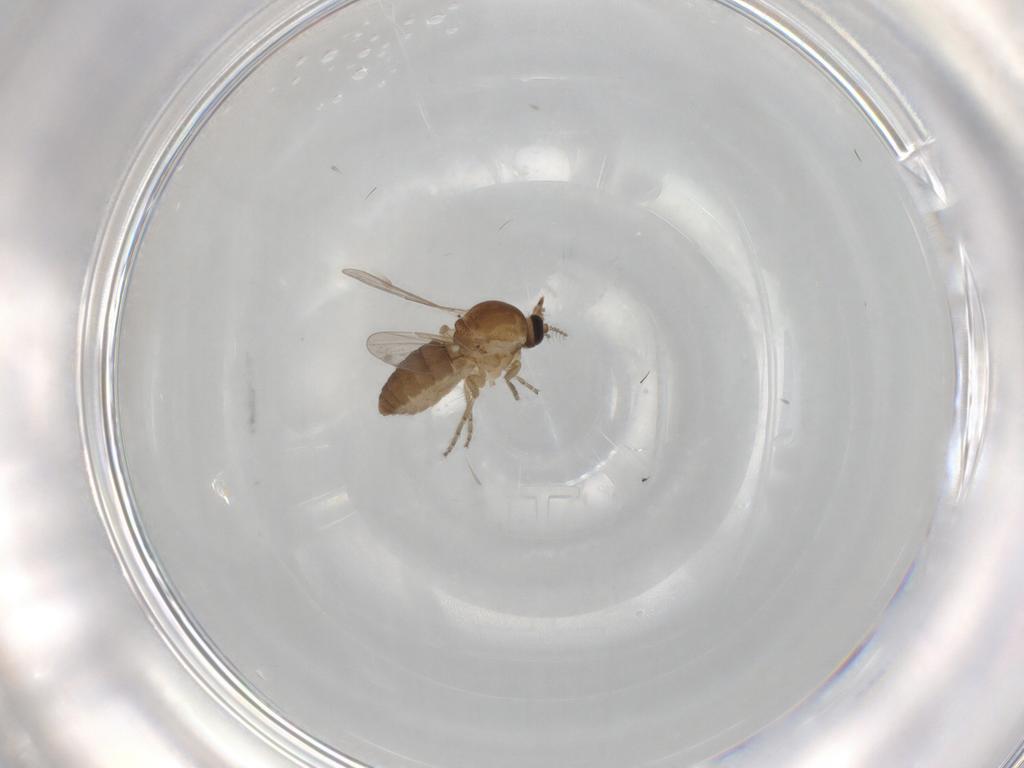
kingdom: Animalia
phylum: Arthropoda
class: Insecta
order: Diptera
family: Ceratopogonidae
